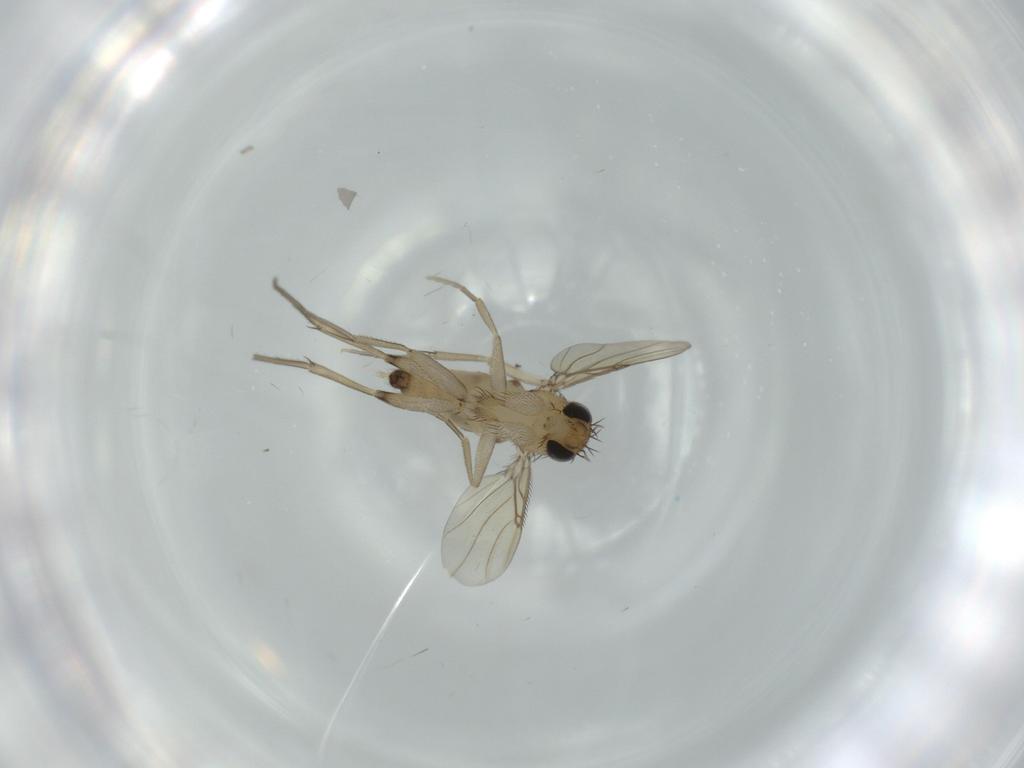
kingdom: Animalia
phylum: Arthropoda
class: Insecta
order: Diptera
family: Phoridae
